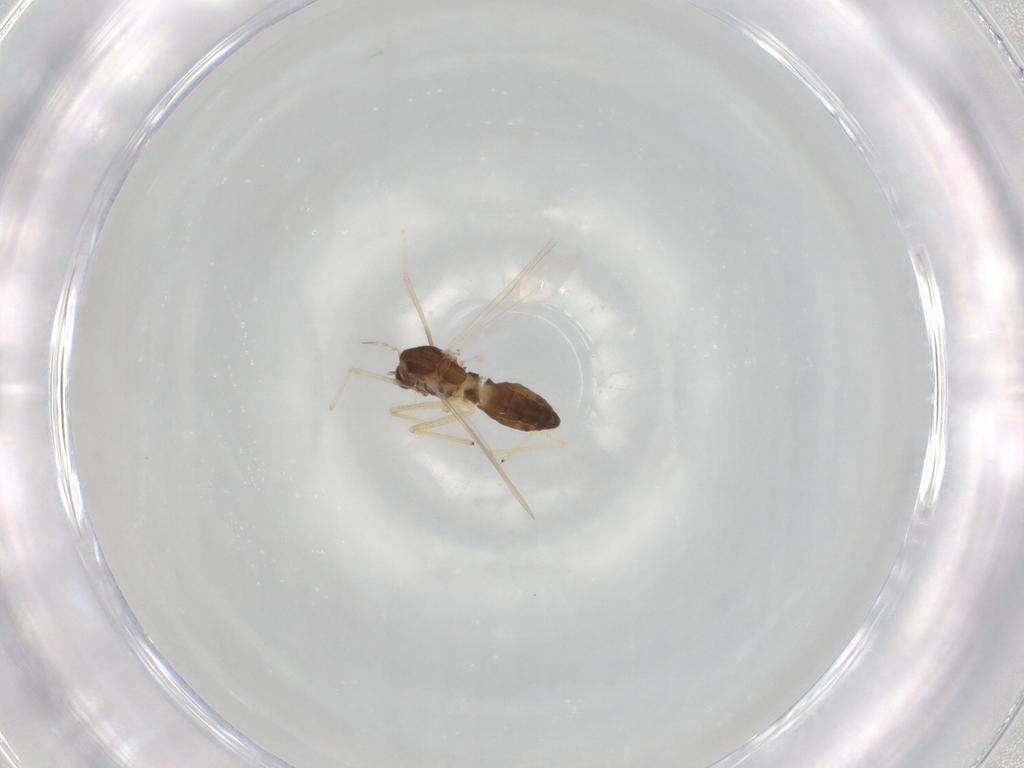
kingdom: Animalia
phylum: Arthropoda
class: Insecta
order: Diptera
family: Chironomidae
